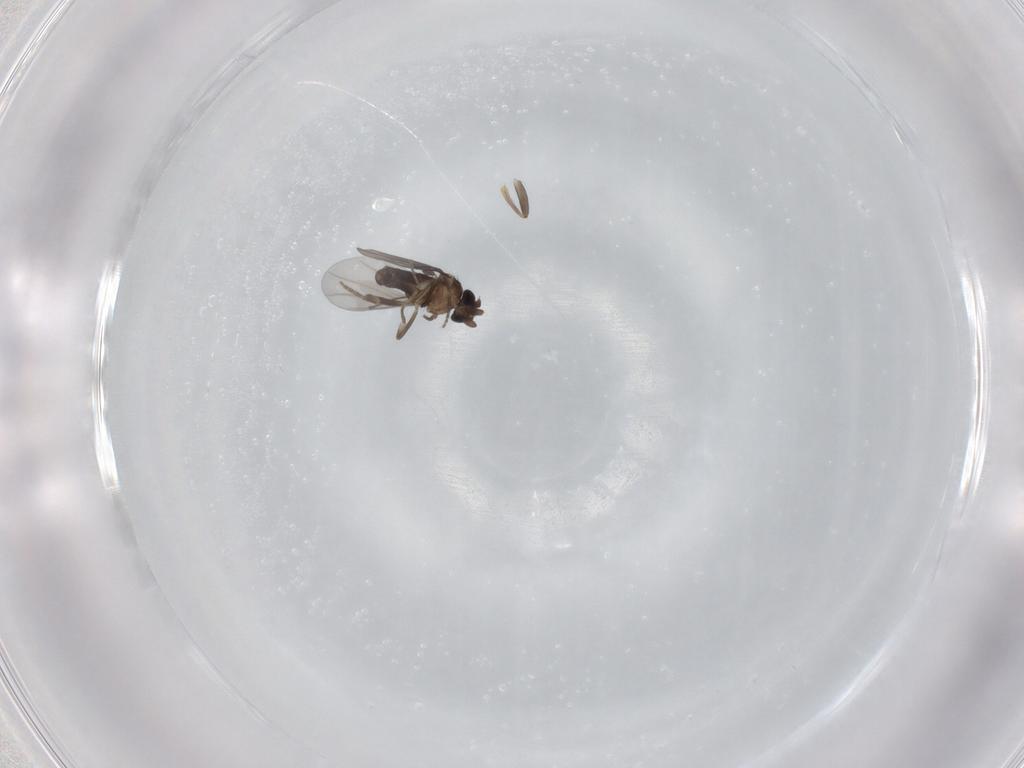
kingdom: Animalia
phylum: Arthropoda
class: Insecta
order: Diptera
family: Cecidomyiidae
